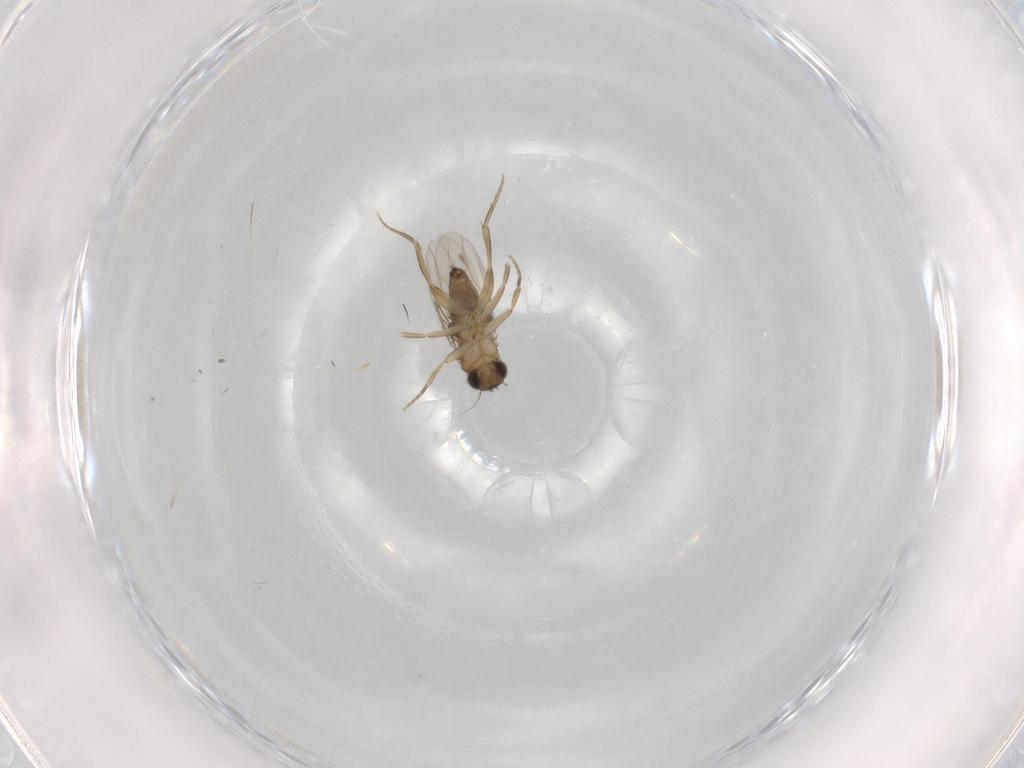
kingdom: Animalia
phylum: Arthropoda
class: Insecta
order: Diptera
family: Phoridae
